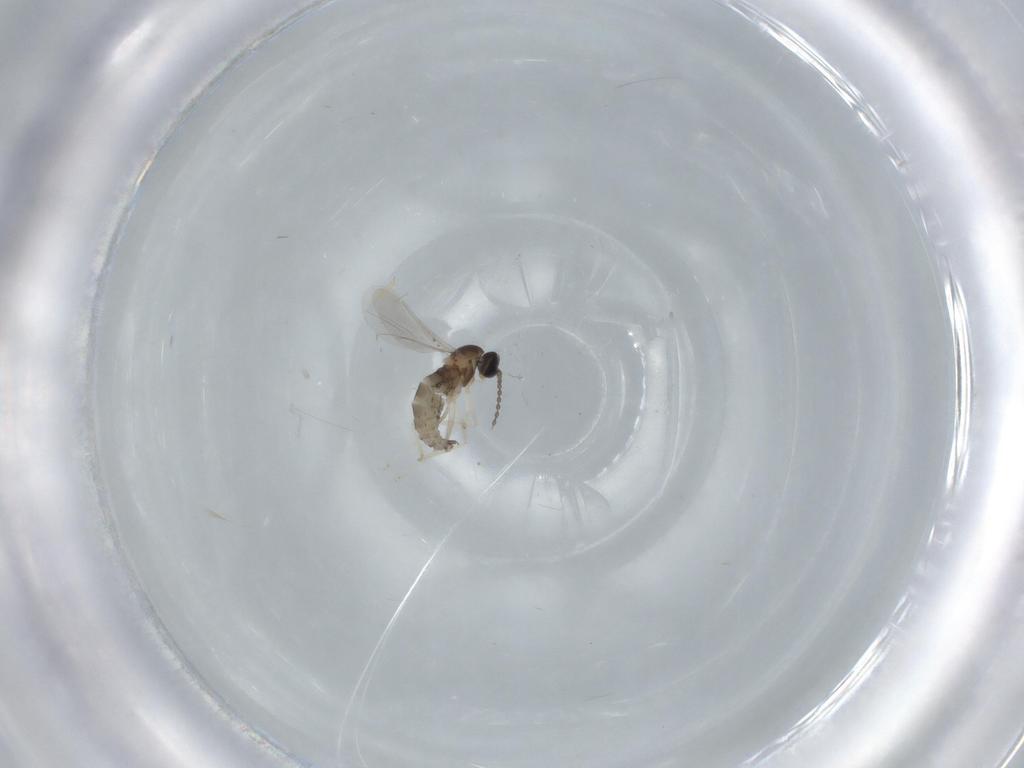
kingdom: Animalia
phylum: Arthropoda
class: Insecta
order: Diptera
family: Cecidomyiidae
